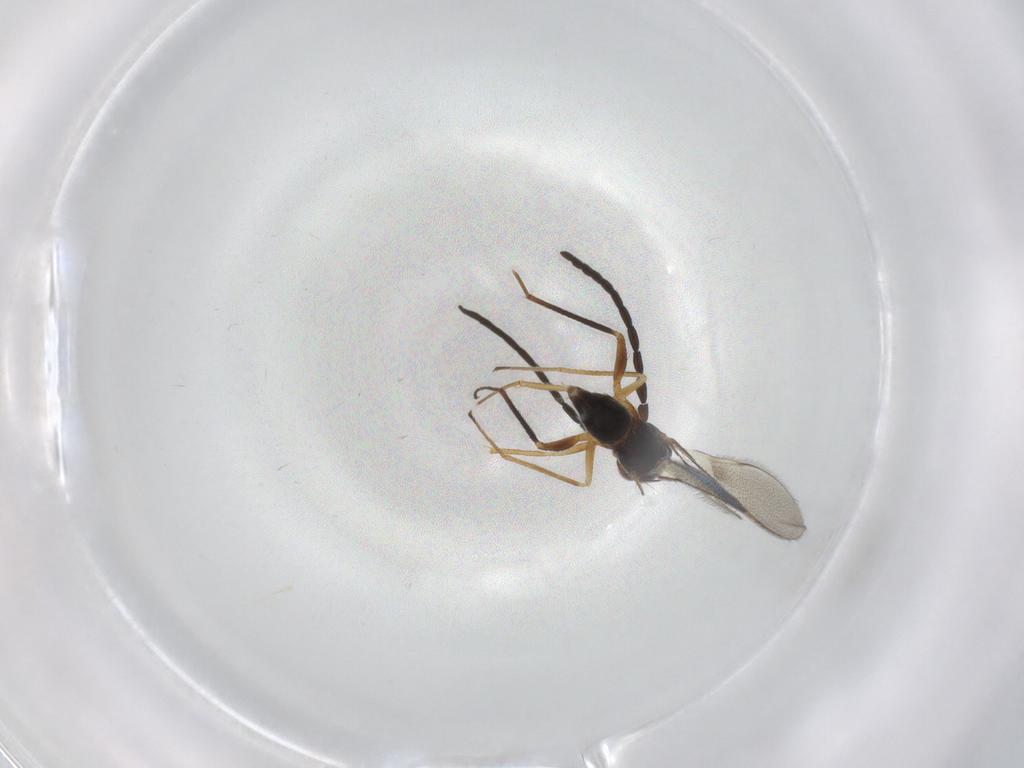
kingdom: Animalia
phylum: Arthropoda
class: Insecta
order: Hymenoptera
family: Mymaridae
